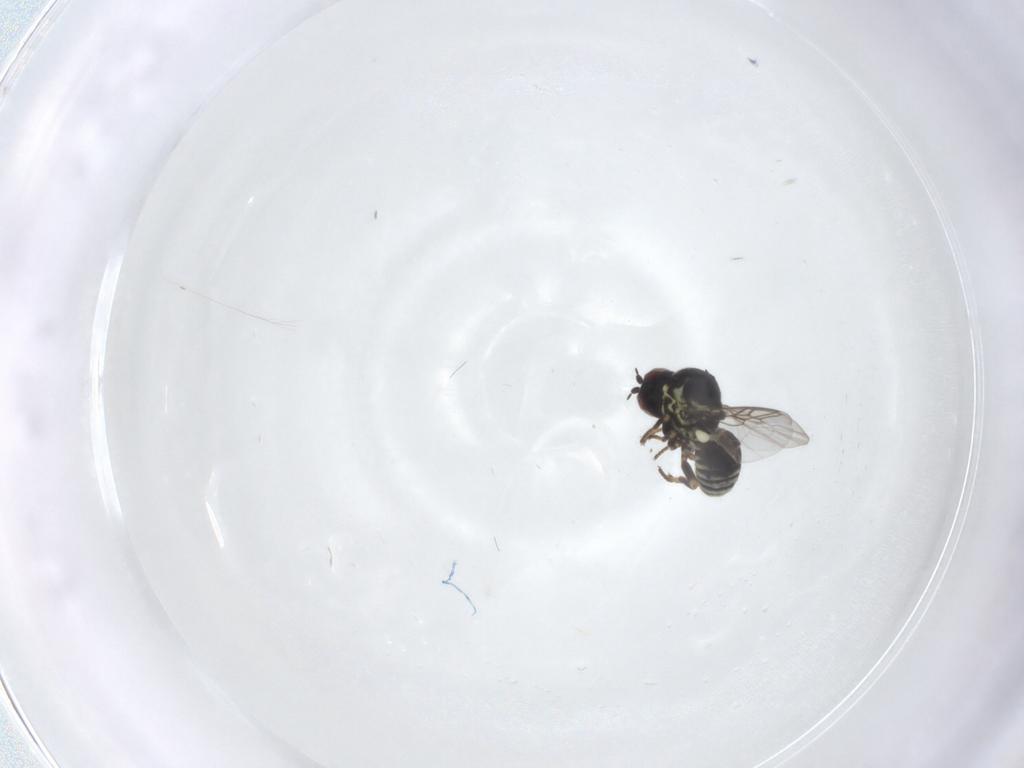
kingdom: Animalia
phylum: Arthropoda
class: Insecta
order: Diptera
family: Mythicomyiidae
